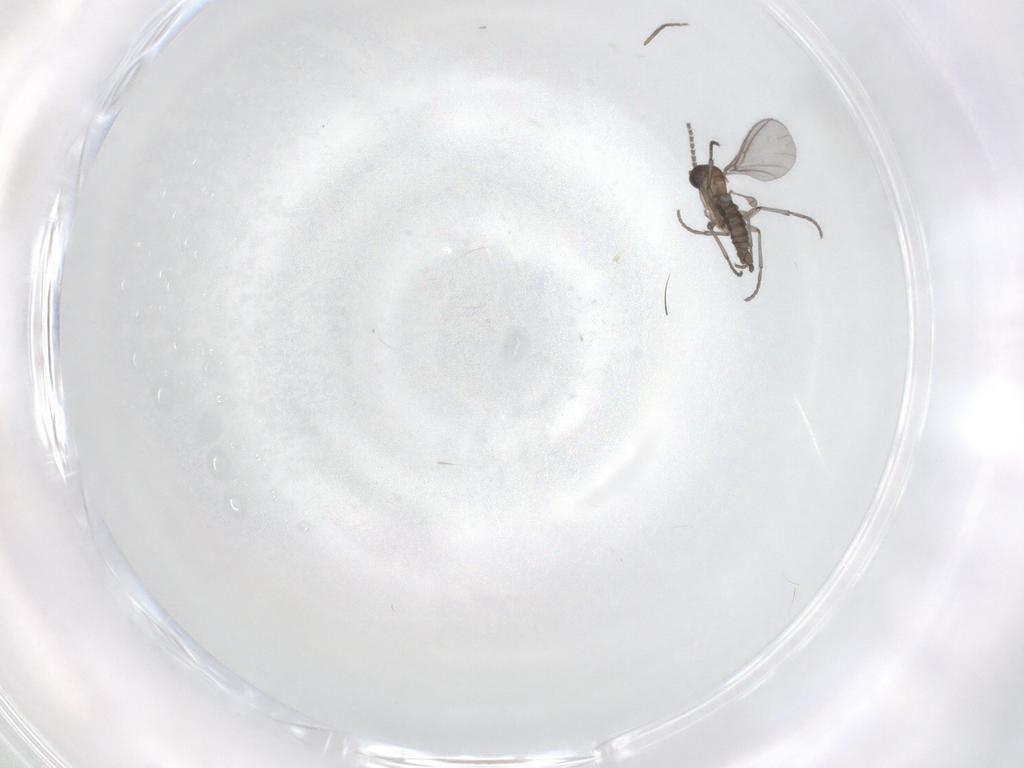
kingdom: Animalia
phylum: Arthropoda
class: Insecta
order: Diptera
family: Sciaridae
